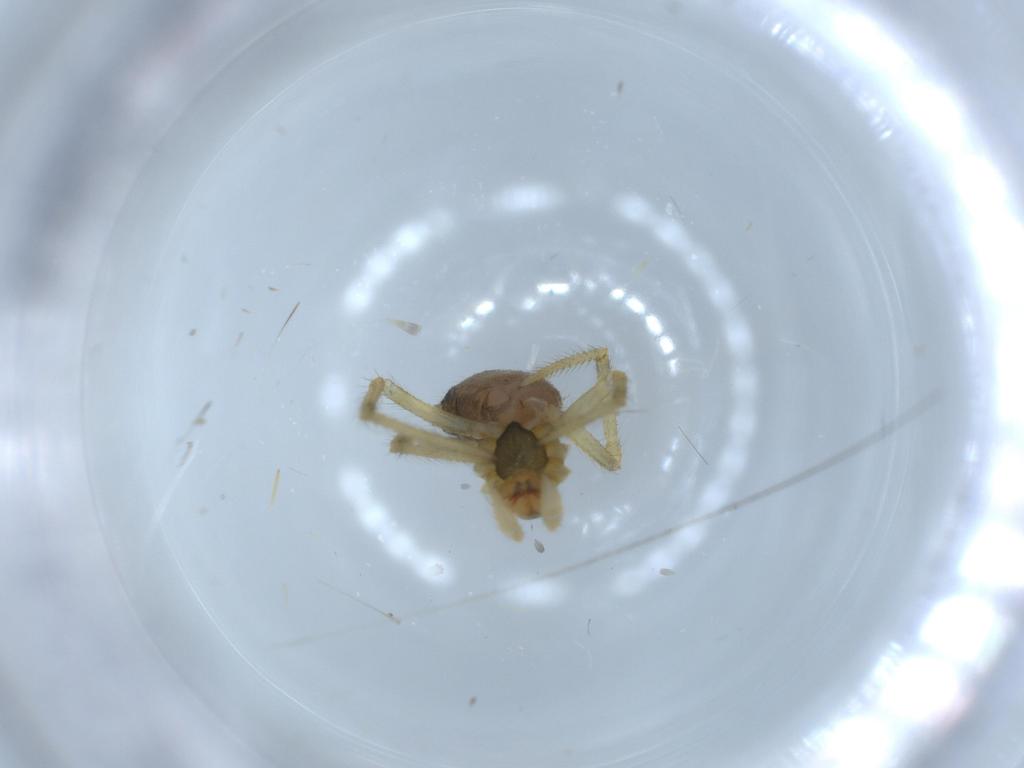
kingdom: Animalia
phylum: Arthropoda
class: Arachnida
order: Araneae
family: Nesticidae
